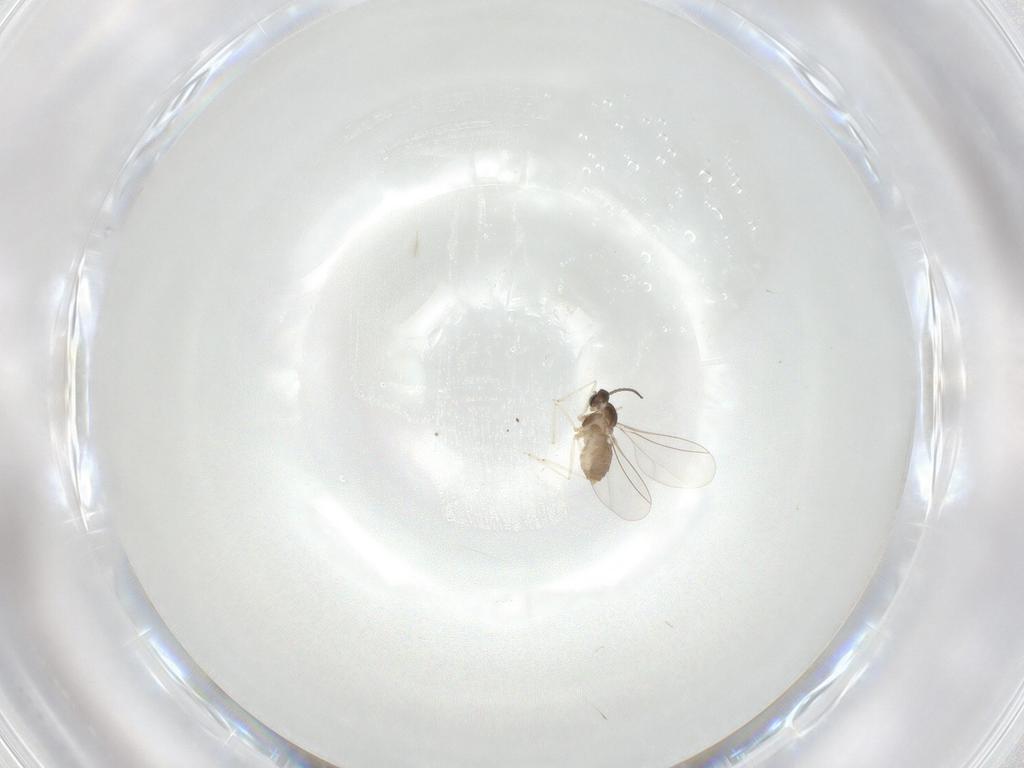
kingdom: Animalia
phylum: Arthropoda
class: Insecta
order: Diptera
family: Cecidomyiidae
